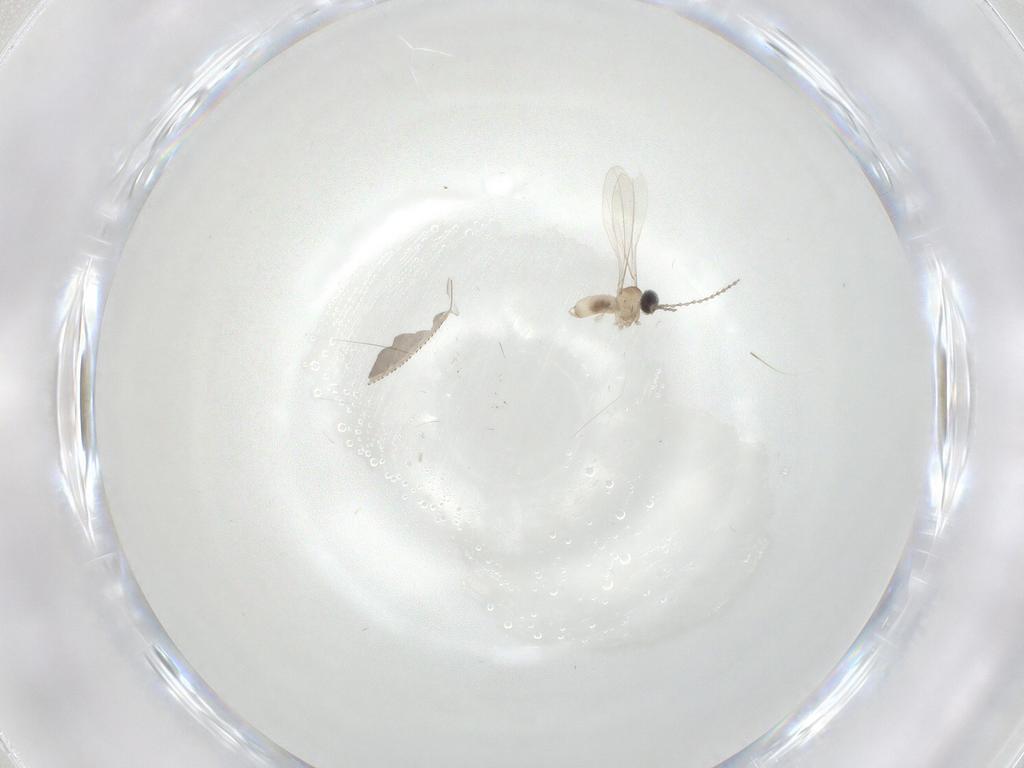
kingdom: Animalia
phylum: Arthropoda
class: Insecta
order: Diptera
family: Cecidomyiidae
